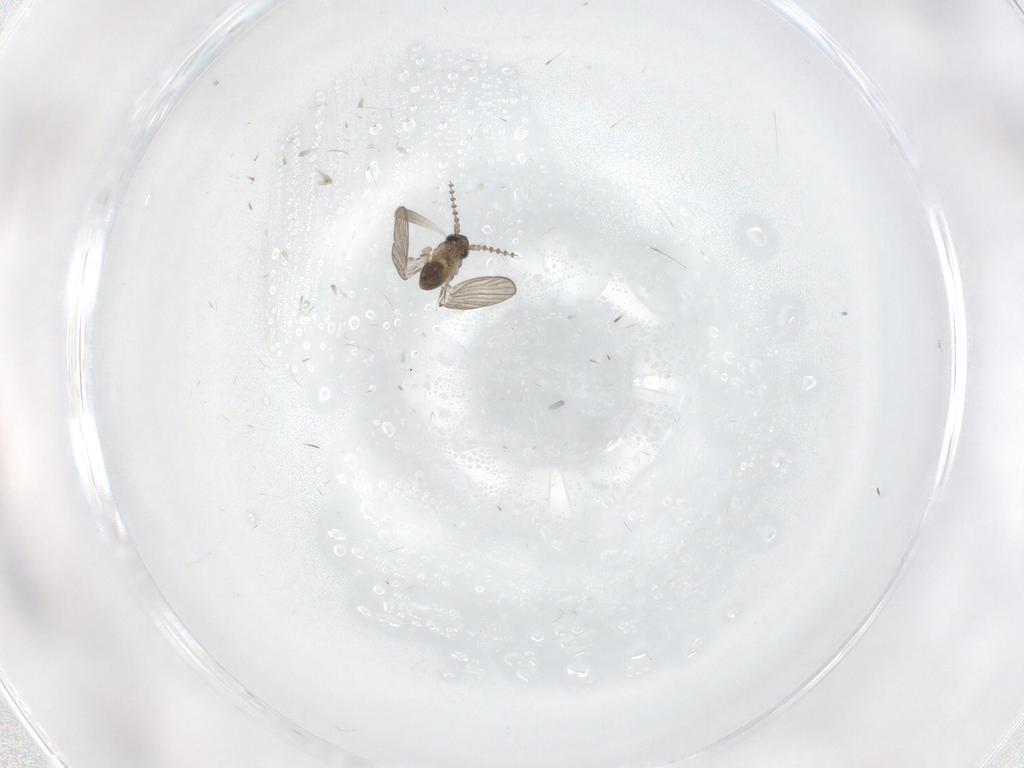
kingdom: Animalia
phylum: Arthropoda
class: Insecta
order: Diptera
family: Psychodidae
